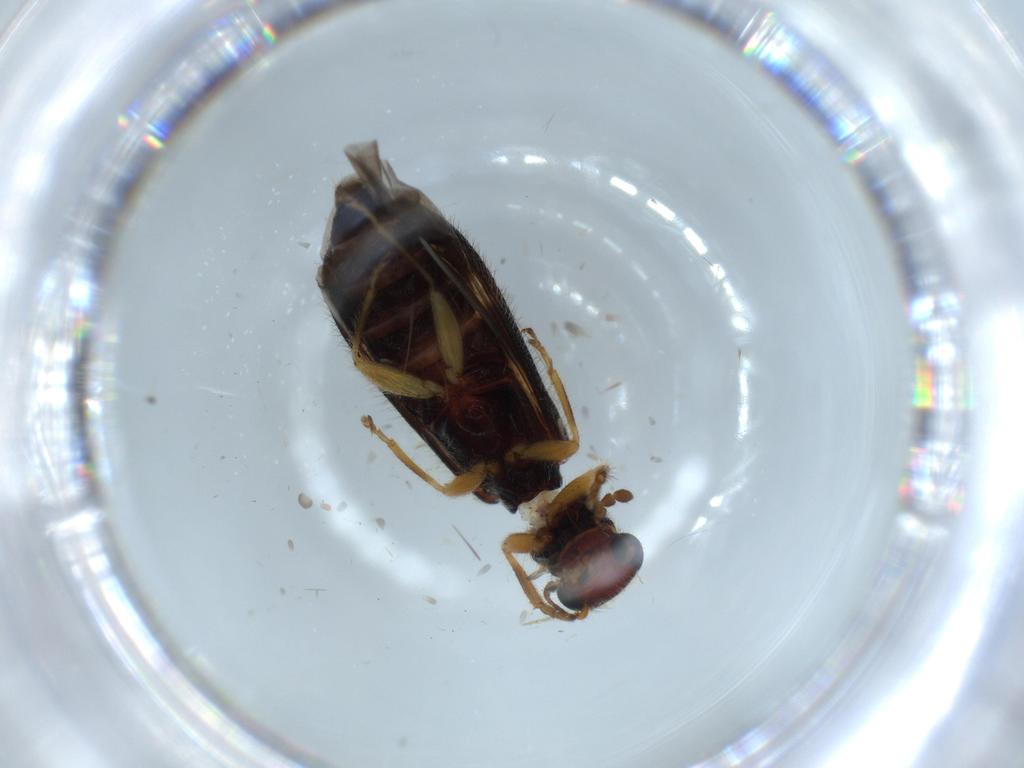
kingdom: Animalia
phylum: Arthropoda
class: Insecta
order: Coleoptera
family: Cleridae
